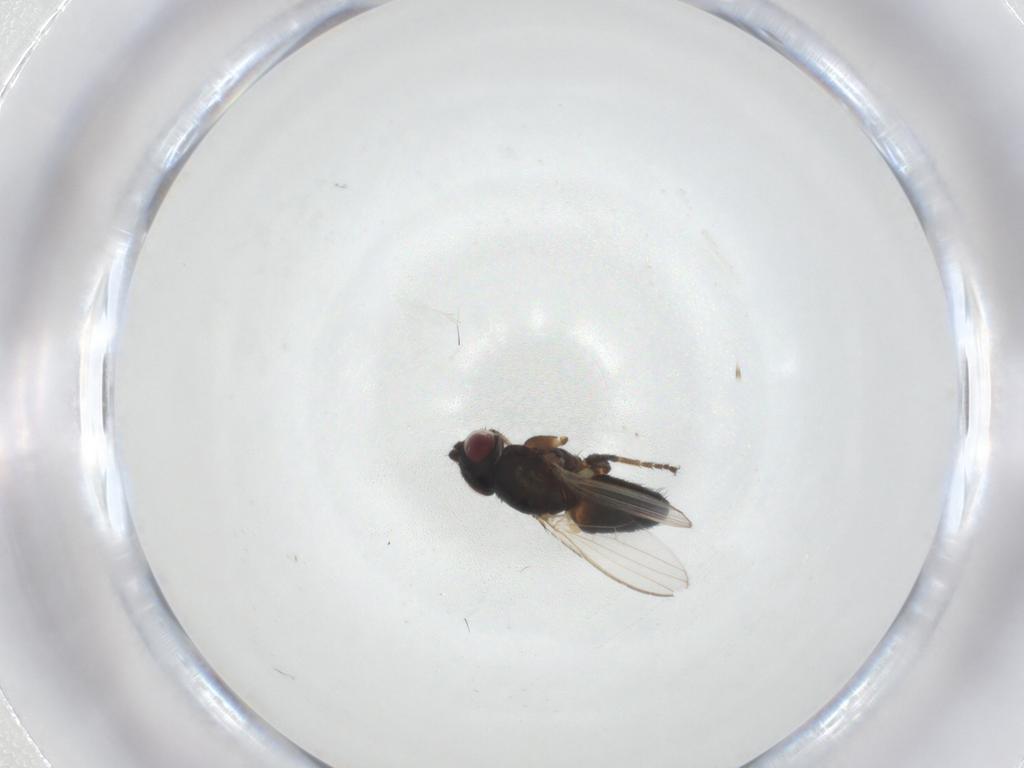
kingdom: Animalia
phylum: Arthropoda
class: Insecta
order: Diptera
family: Milichiidae
